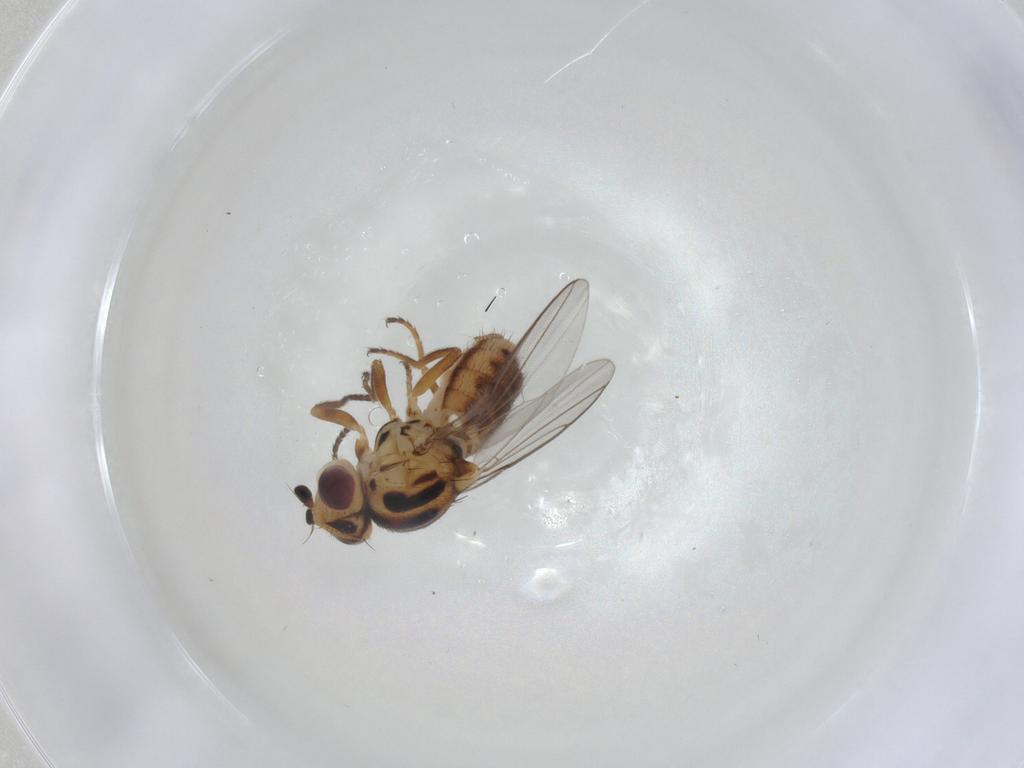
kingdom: Animalia
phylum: Arthropoda
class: Insecta
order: Diptera
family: Chloropidae
